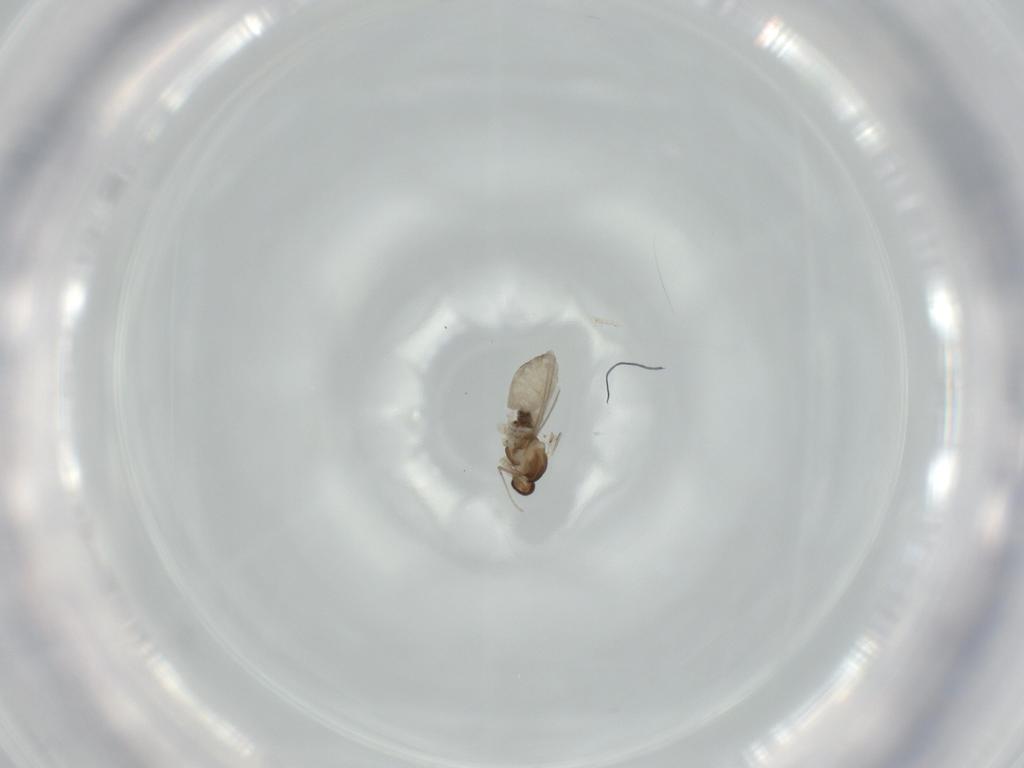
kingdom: Animalia
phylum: Arthropoda
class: Insecta
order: Diptera
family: Cecidomyiidae
